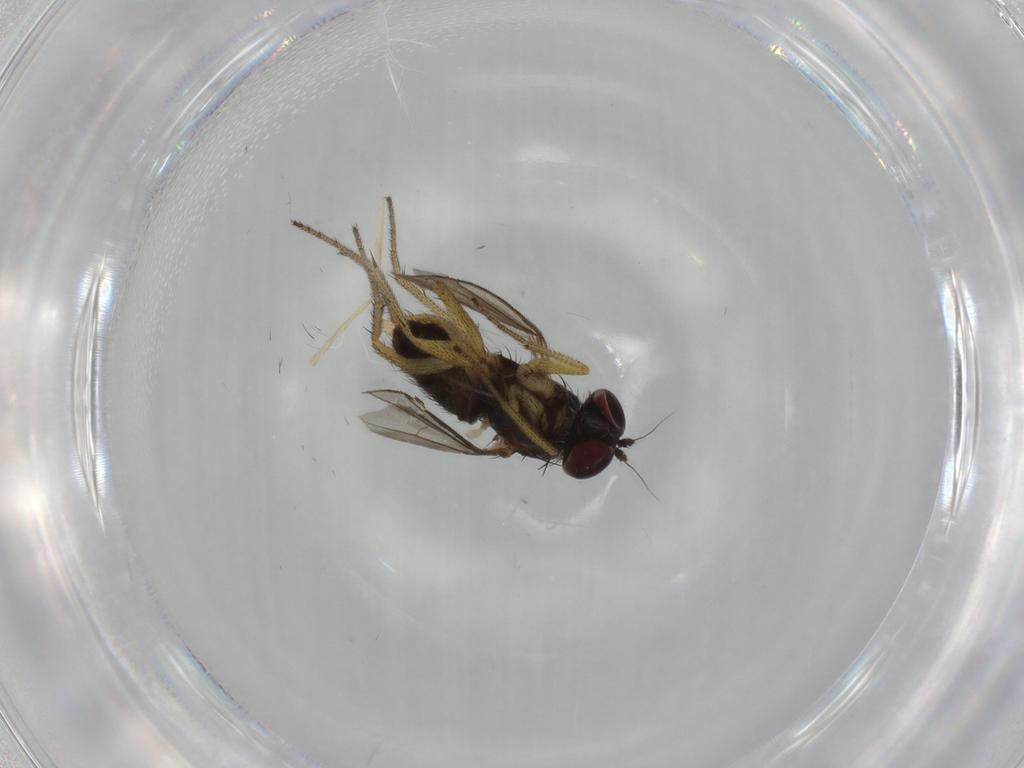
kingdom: Animalia
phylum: Arthropoda
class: Insecta
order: Diptera
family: Dolichopodidae
